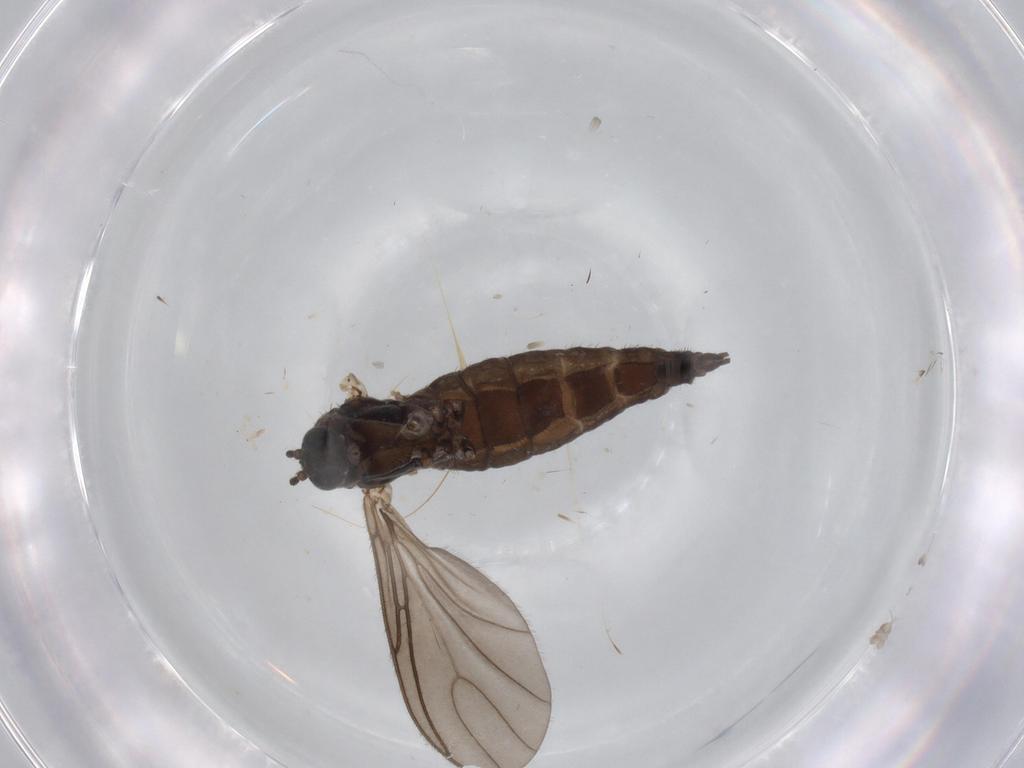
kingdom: Animalia
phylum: Arthropoda
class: Insecta
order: Diptera
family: Sciaridae
